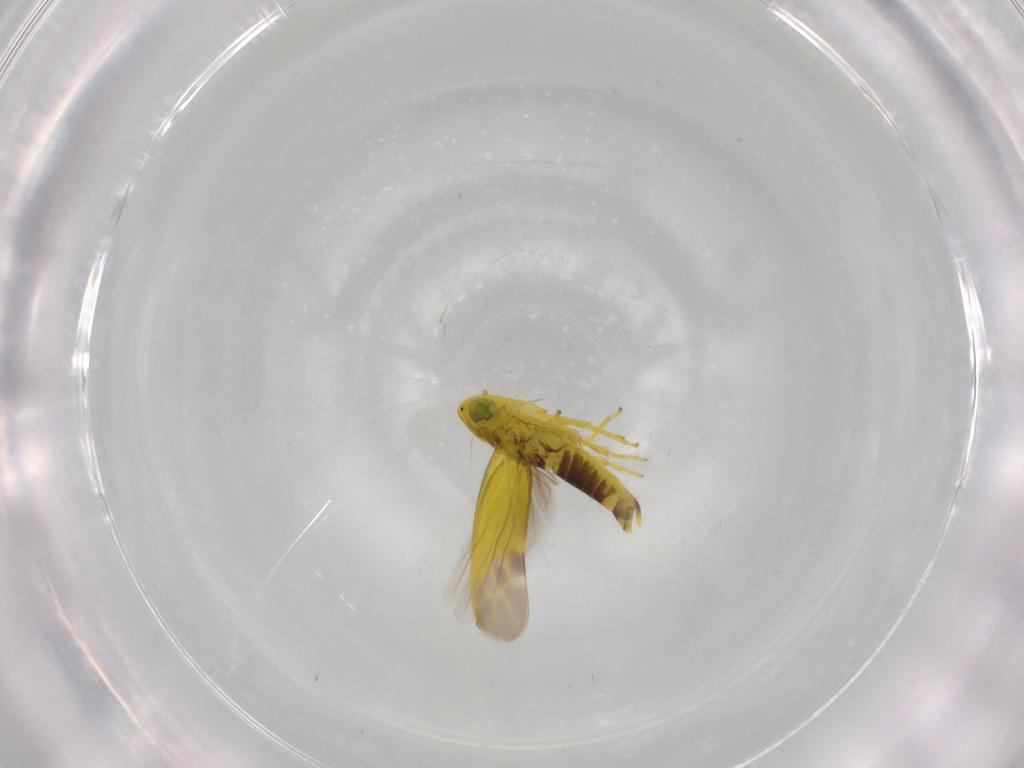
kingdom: Animalia
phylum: Arthropoda
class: Insecta
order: Hemiptera
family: Cicadellidae
